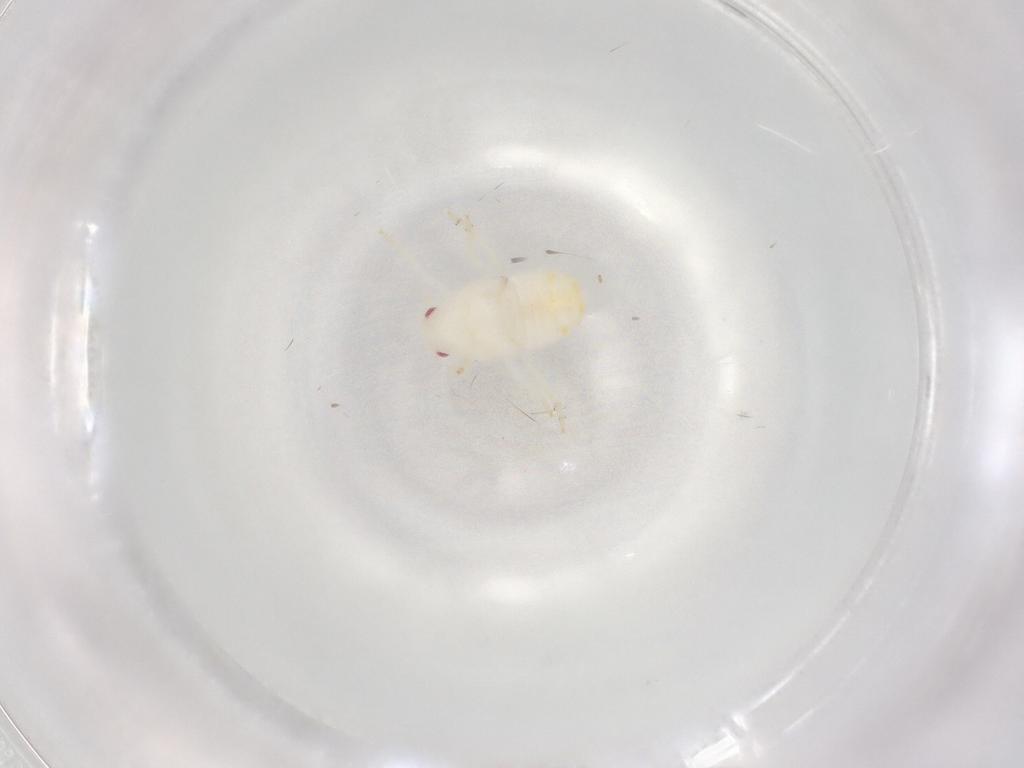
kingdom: Animalia
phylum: Arthropoda
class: Insecta
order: Hemiptera
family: Flatidae
